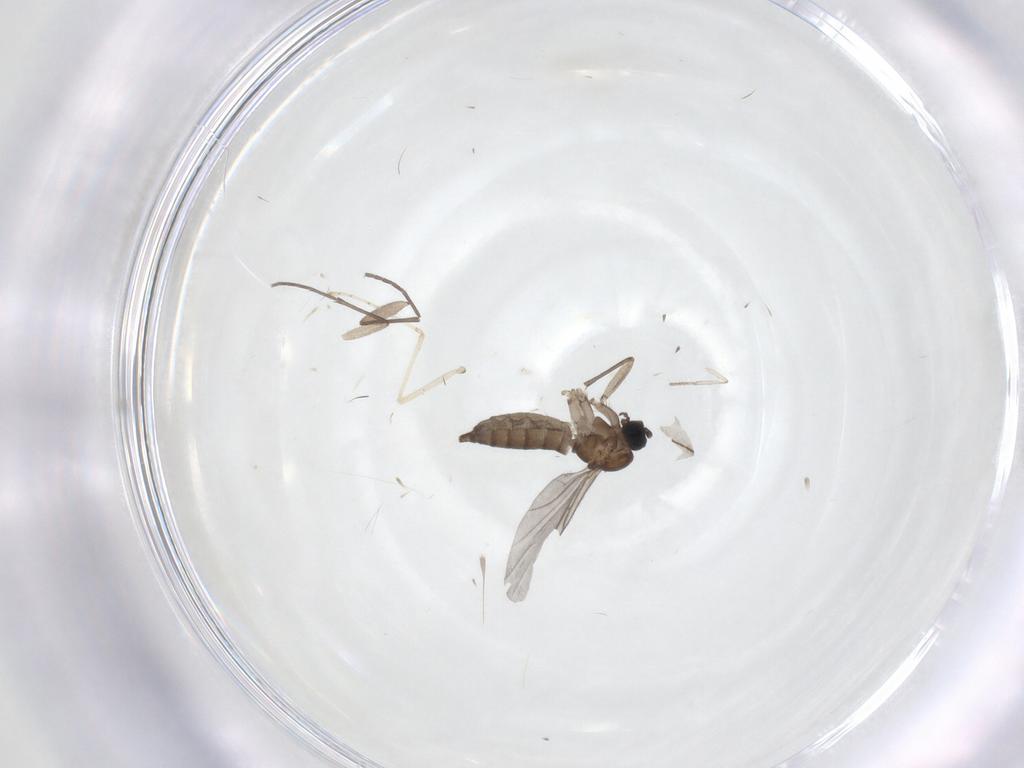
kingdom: Animalia
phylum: Arthropoda
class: Insecta
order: Diptera
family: Sciaridae
